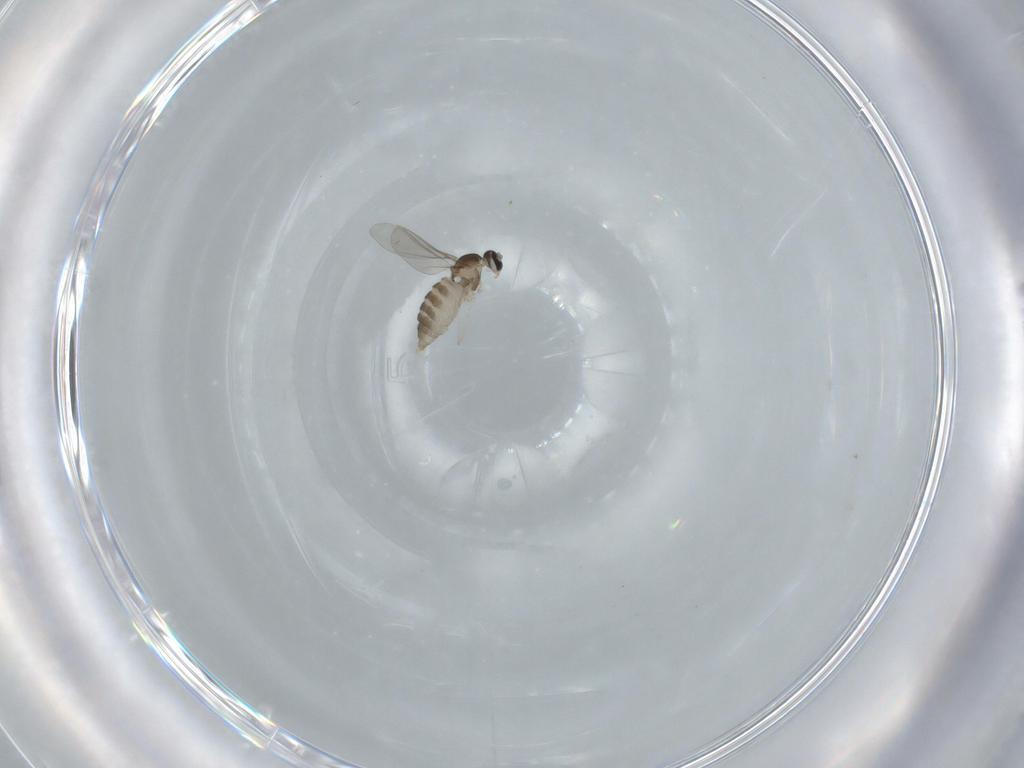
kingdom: Animalia
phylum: Arthropoda
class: Insecta
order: Diptera
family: Cecidomyiidae
